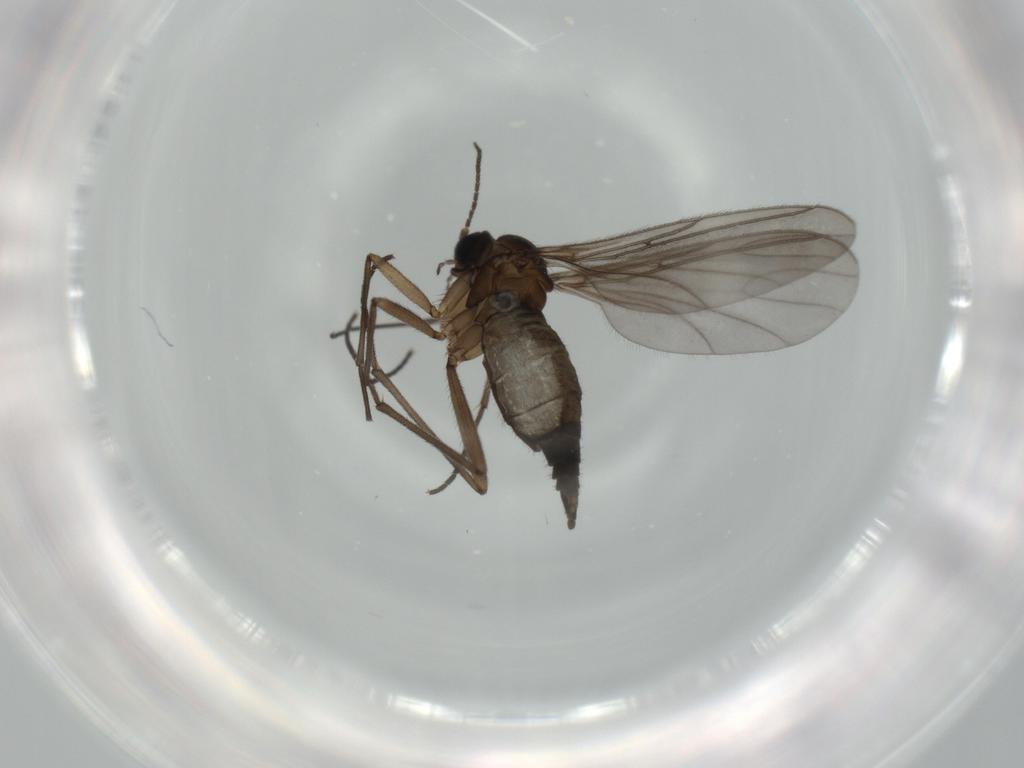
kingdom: Animalia
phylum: Arthropoda
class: Insecta
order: Diptera
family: Sciaridae
